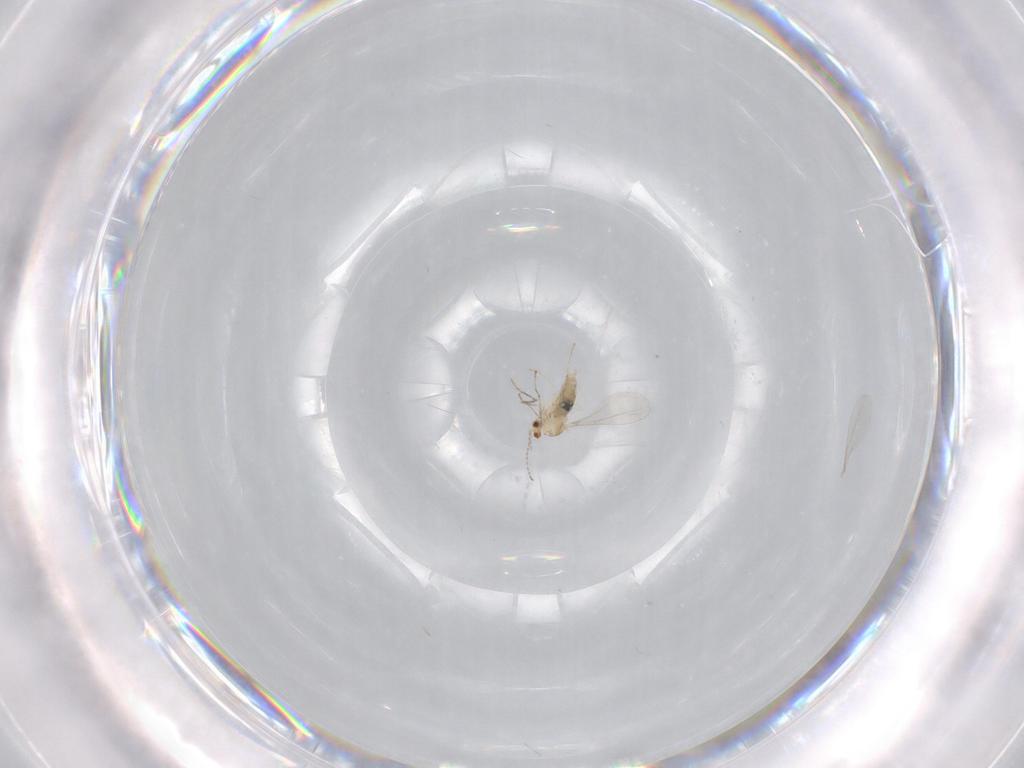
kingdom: Animalia
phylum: Arthropoda
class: Insecta
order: Diptera
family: Cecidomyiidae
